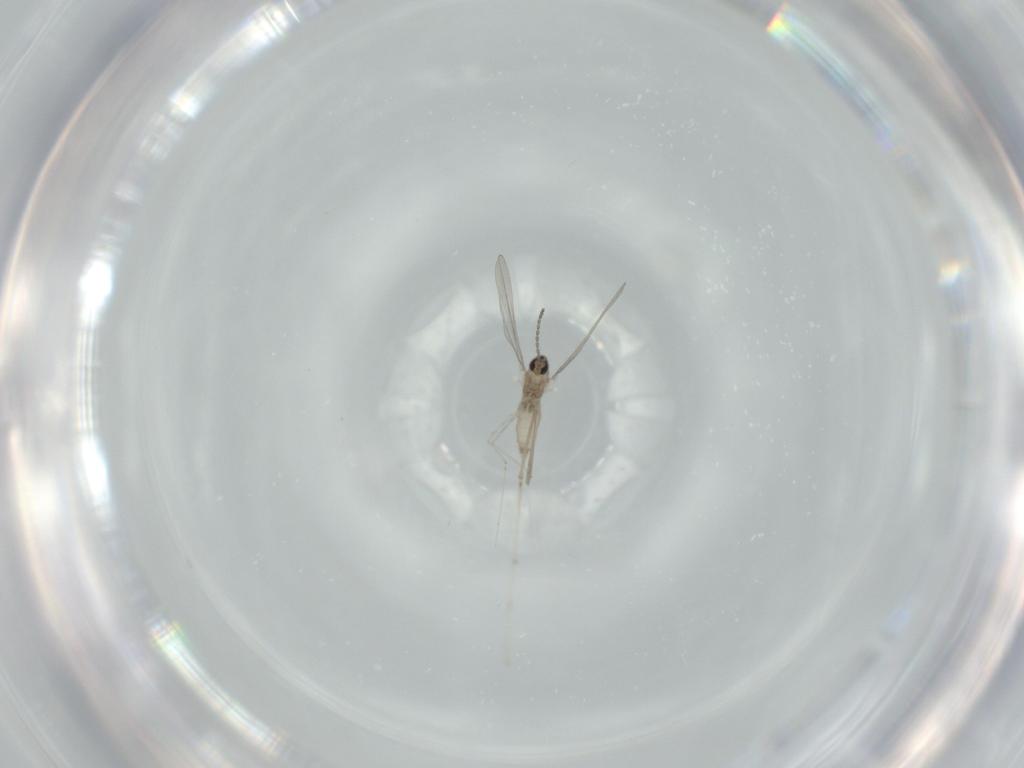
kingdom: Animalia
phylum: Arthropoda
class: Insecta
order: Diptera
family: Cecidomyiidae
